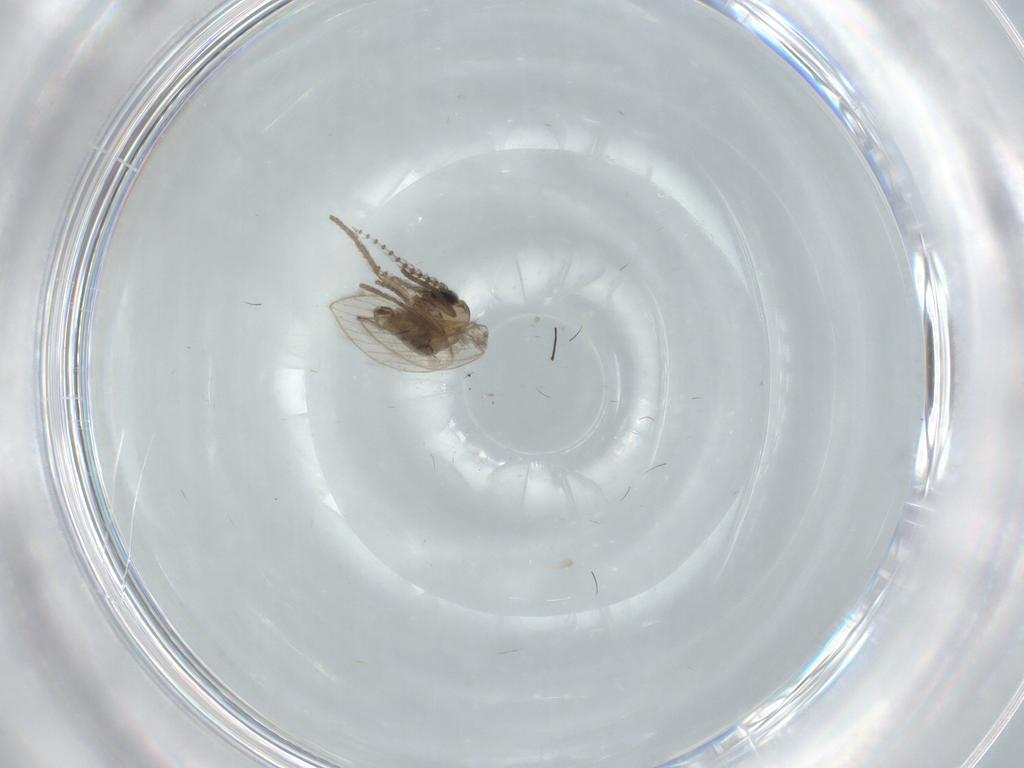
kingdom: Animalia
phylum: Arthropoda
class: Insecta
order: Diptera
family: Psychodidae
